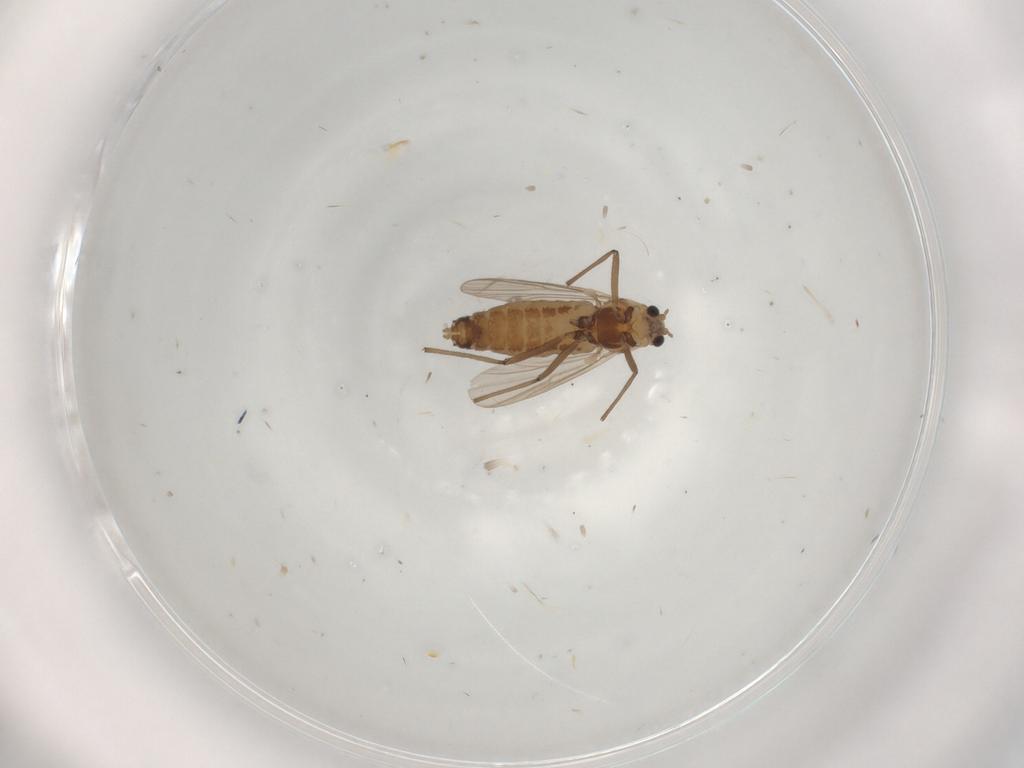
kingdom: Animalia
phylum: Arthropoda
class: Insecta
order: Diptera
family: Chironomidae
